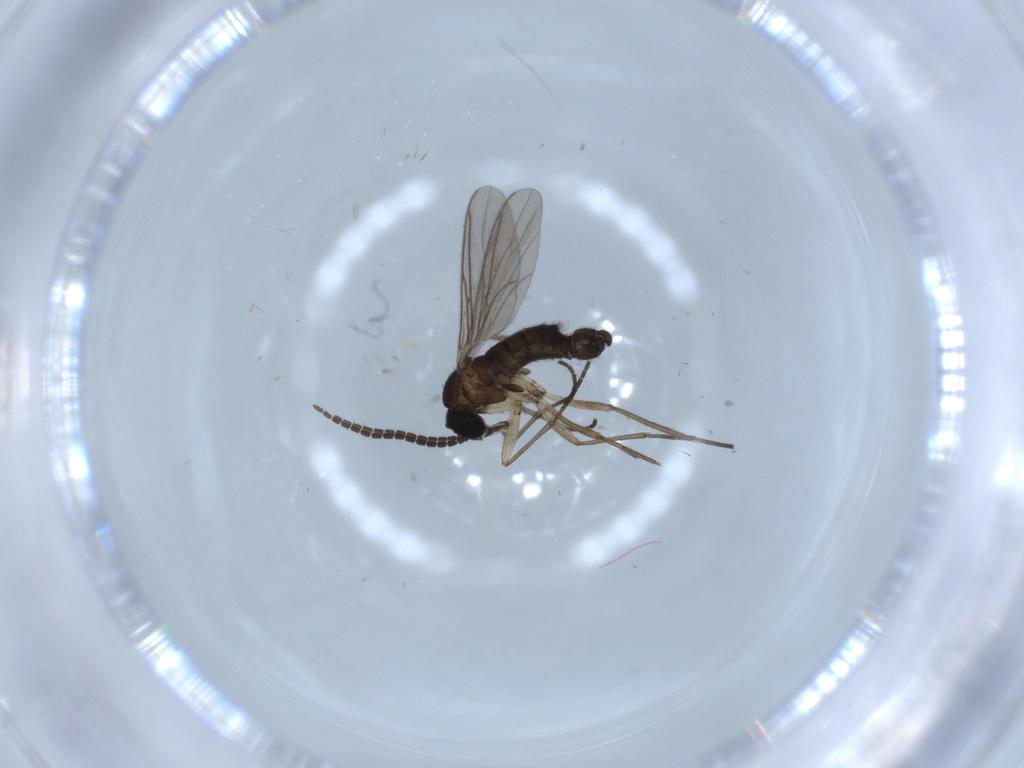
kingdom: Animalia
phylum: Arthropoda
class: Insecta
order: Diptera
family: Sciaridae
